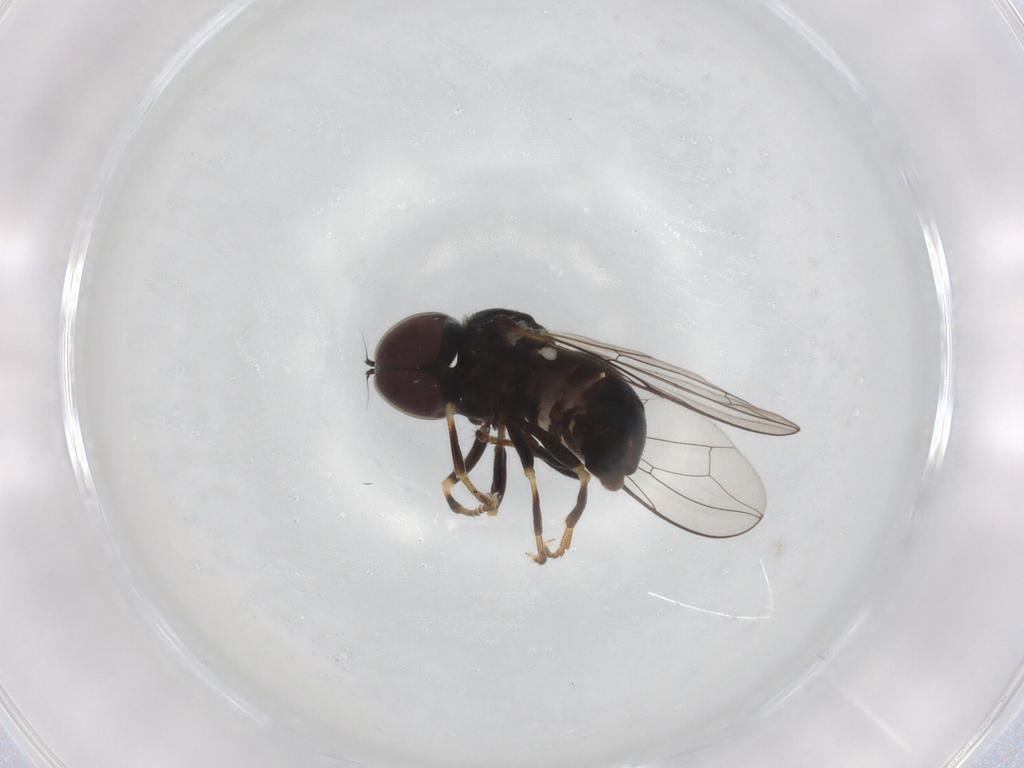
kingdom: Animalia
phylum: Arthropoda
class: Insecta
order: Diptera
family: Pipunculidae
